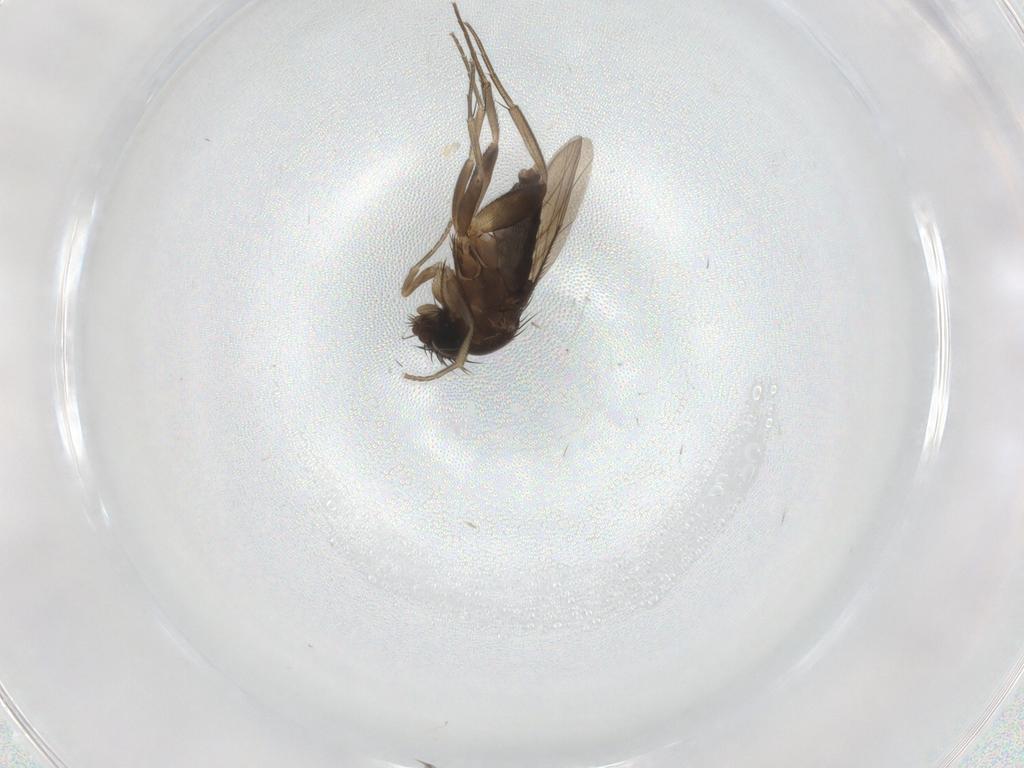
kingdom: Animalia
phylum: Arthropoda
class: Insecta
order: Diptera
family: Phoridae
